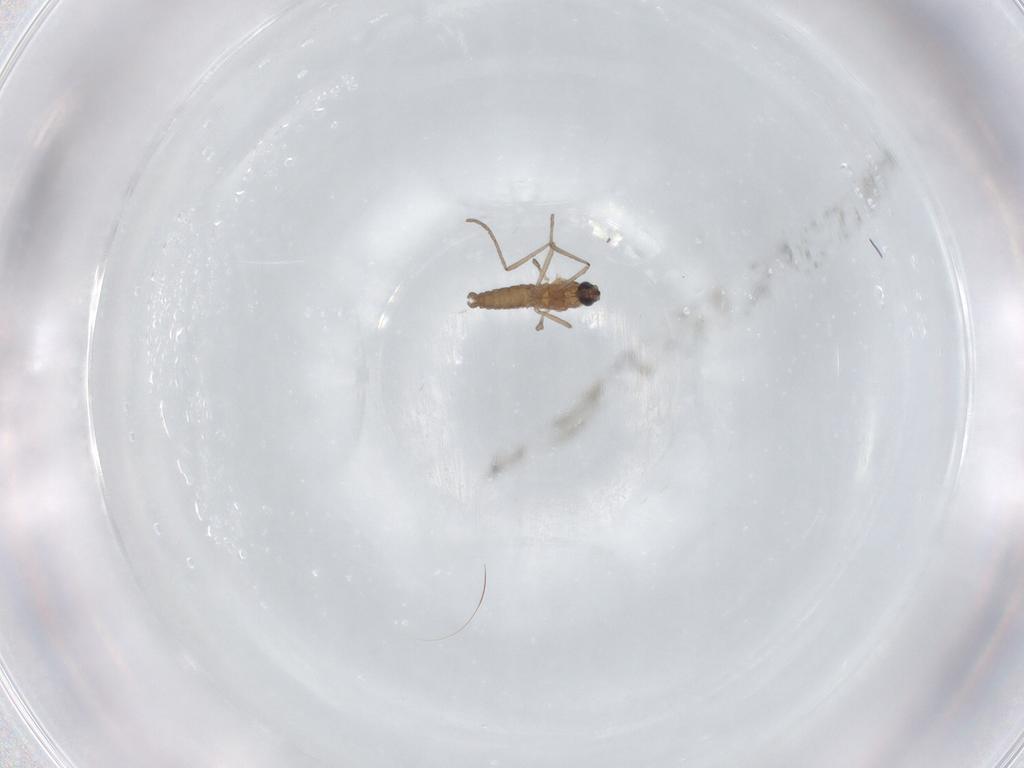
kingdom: Animalia
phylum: Arthropoda
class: Insecta
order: Diptera
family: Cecidomyiidae
